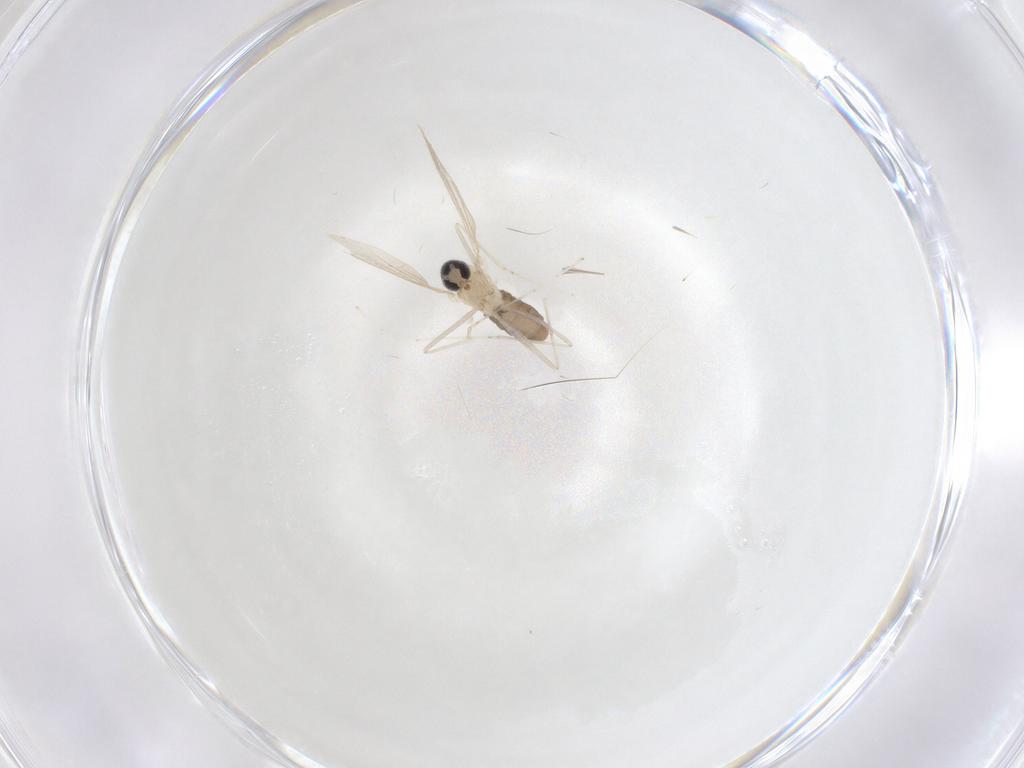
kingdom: Animalia
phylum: Arthropoda
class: Insecta
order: Diptera
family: Cecidomyiidae
